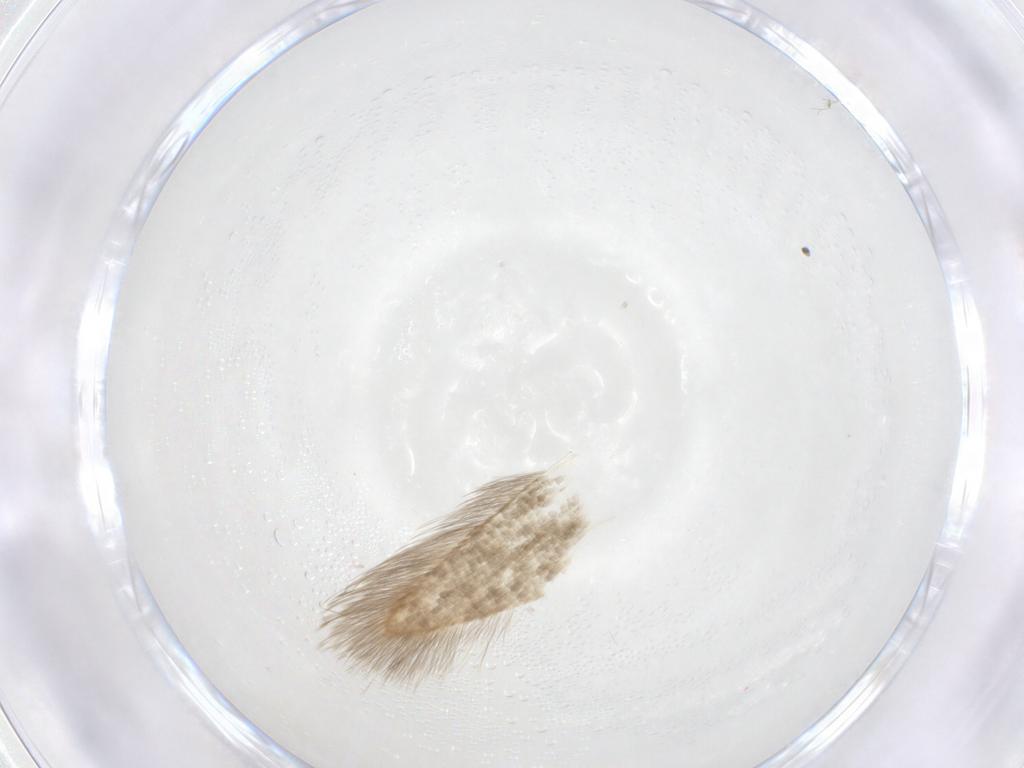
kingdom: Animalia
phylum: Arthropoda
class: Insecta
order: Lepidoptera
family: Blastobasidae
